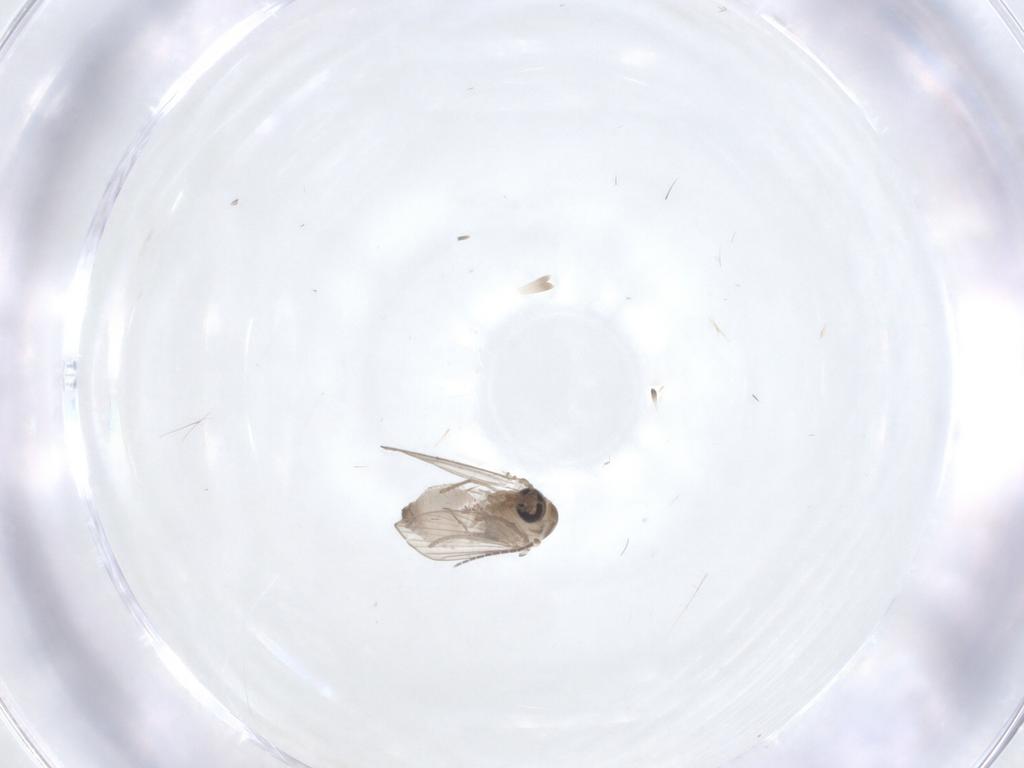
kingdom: Animalia
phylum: Arthropoda
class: Insecta
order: Diptera
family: Psychodidae
